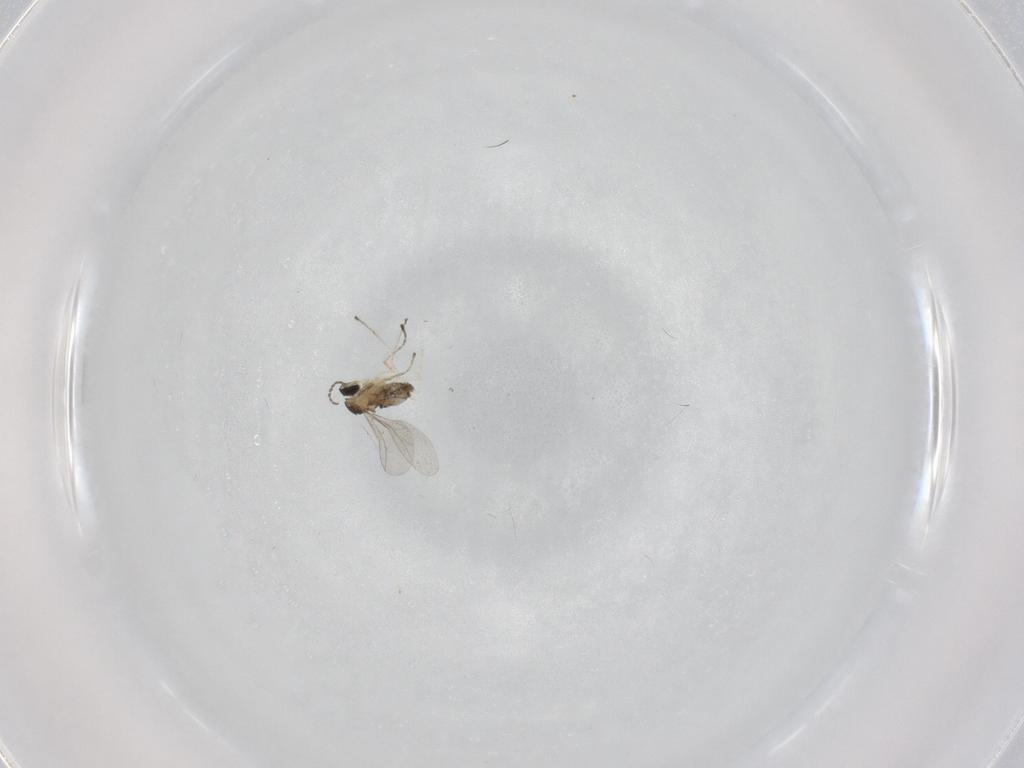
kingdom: Animalia
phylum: Arthropoda
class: Insecta
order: Diptera
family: Cecidomyiidae
